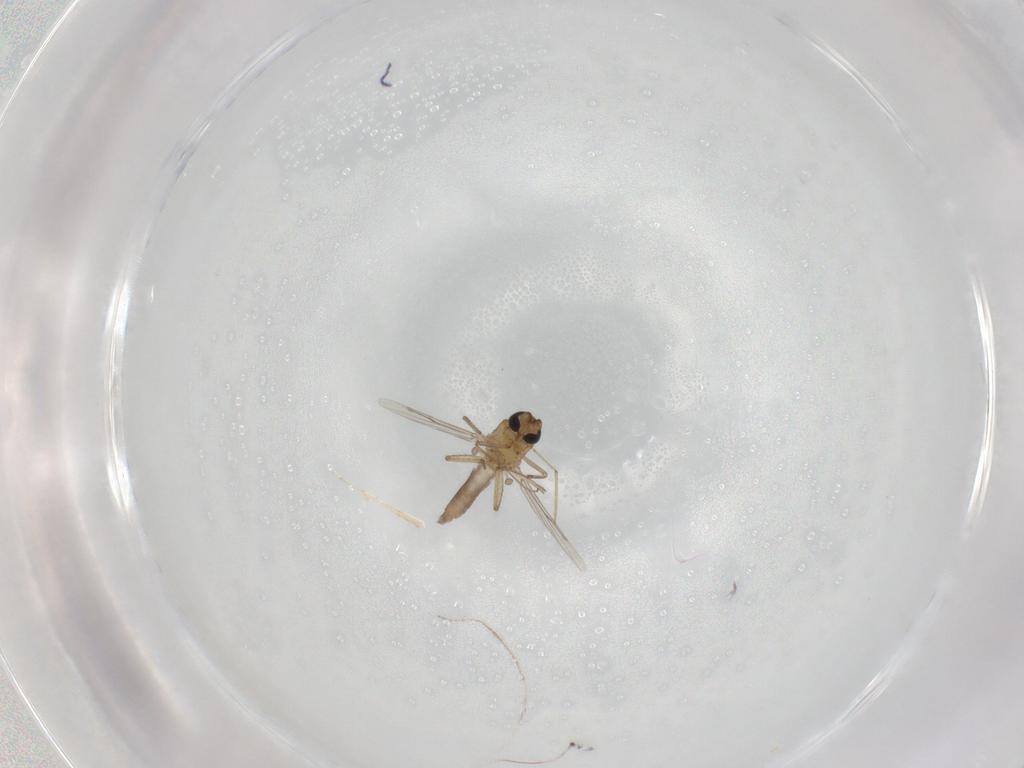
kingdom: Animalia
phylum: Arthropoda
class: Insecta
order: Diptera
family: Ceratopogonidae
